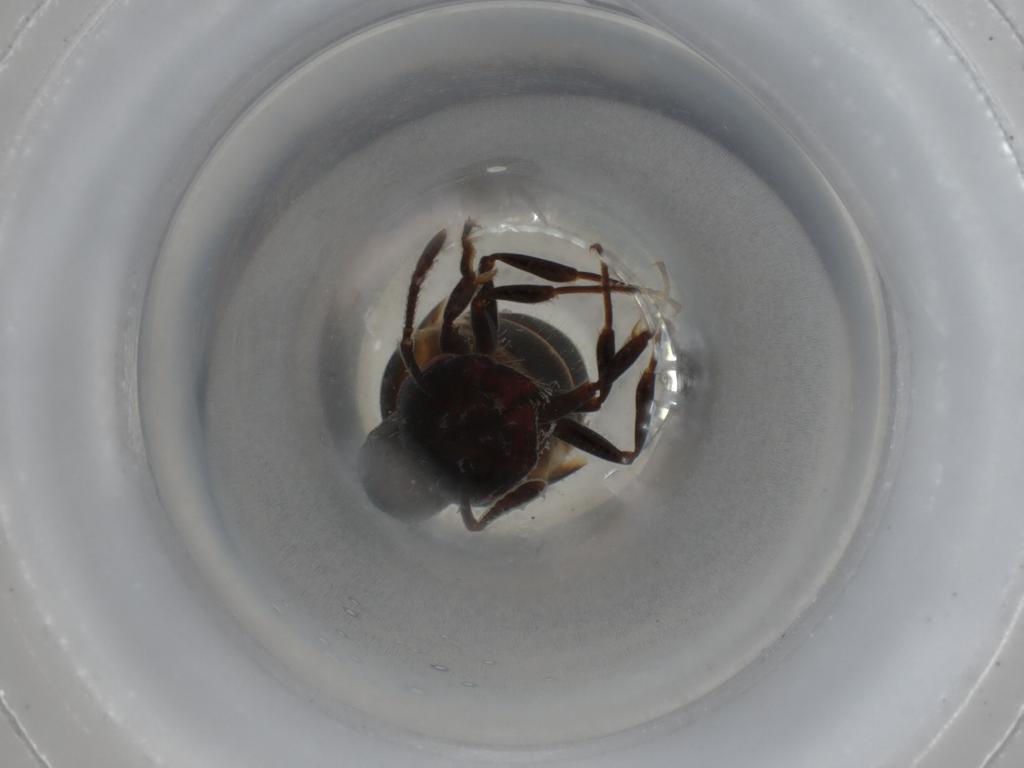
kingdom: Animalia
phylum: Arthropoda
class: Insecta
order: Hymenoptera
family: Formicidae
